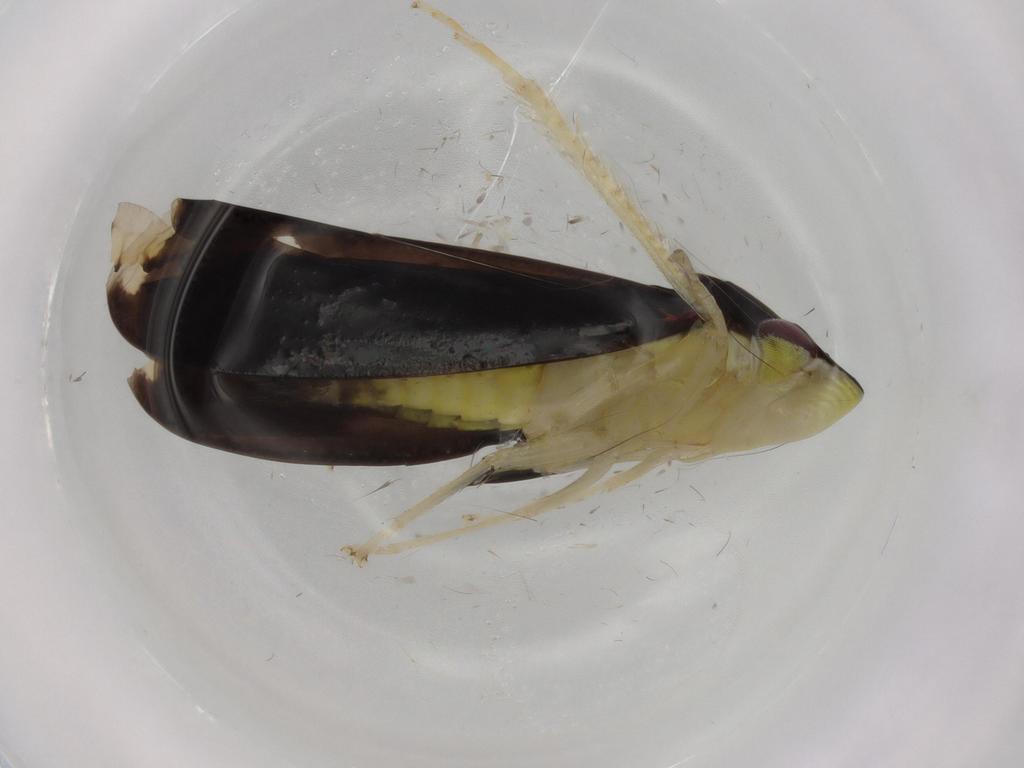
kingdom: Animalia
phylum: Arthropoda
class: Insecta
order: Hemiptera
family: Cicadellidae
